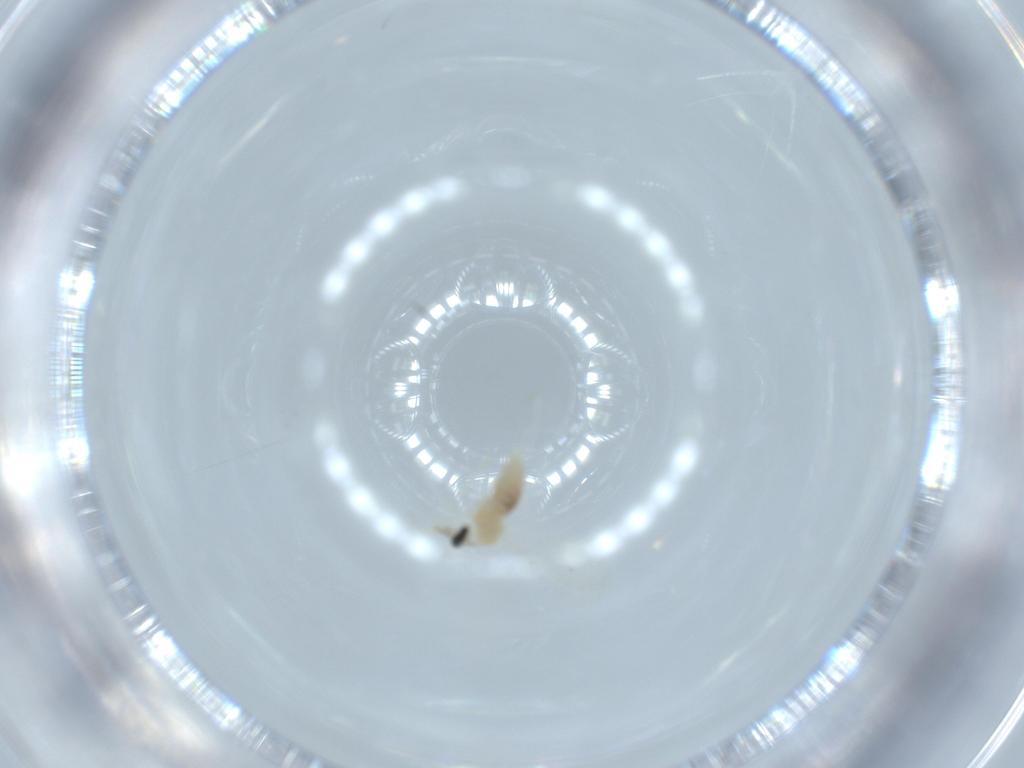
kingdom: Animalia
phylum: Arthropoda
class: Insecta
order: Diptera
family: Cecidomyiidae
